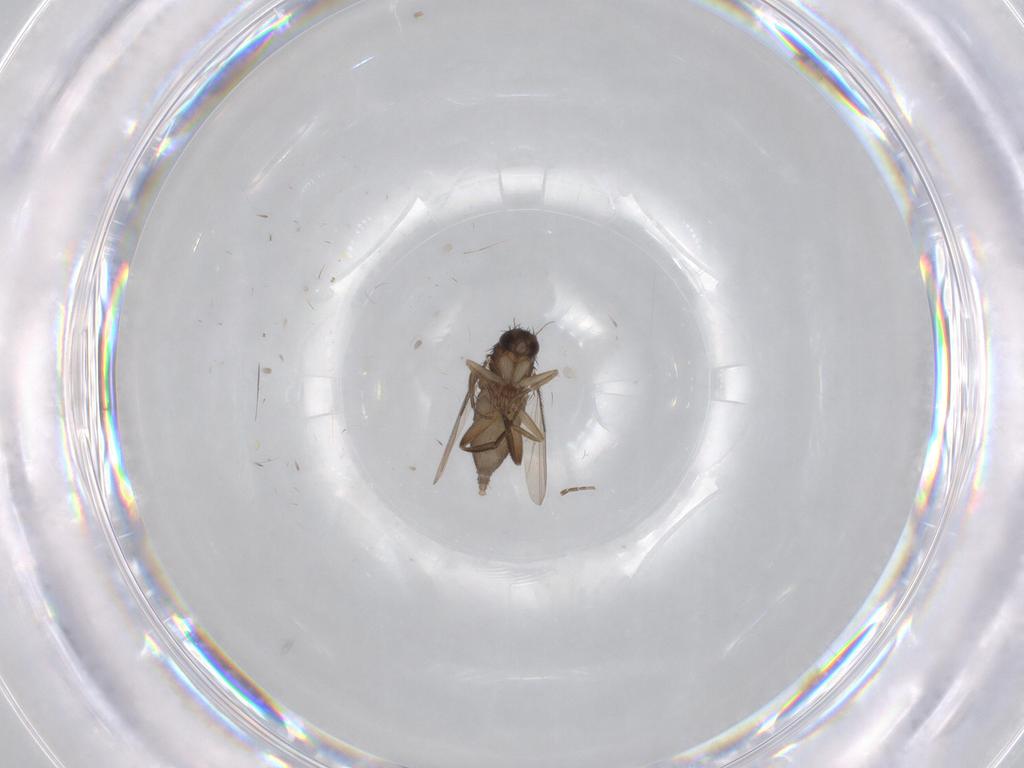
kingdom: Animalia
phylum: Arthropoda
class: Insecta
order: Diptera
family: Phoridae
